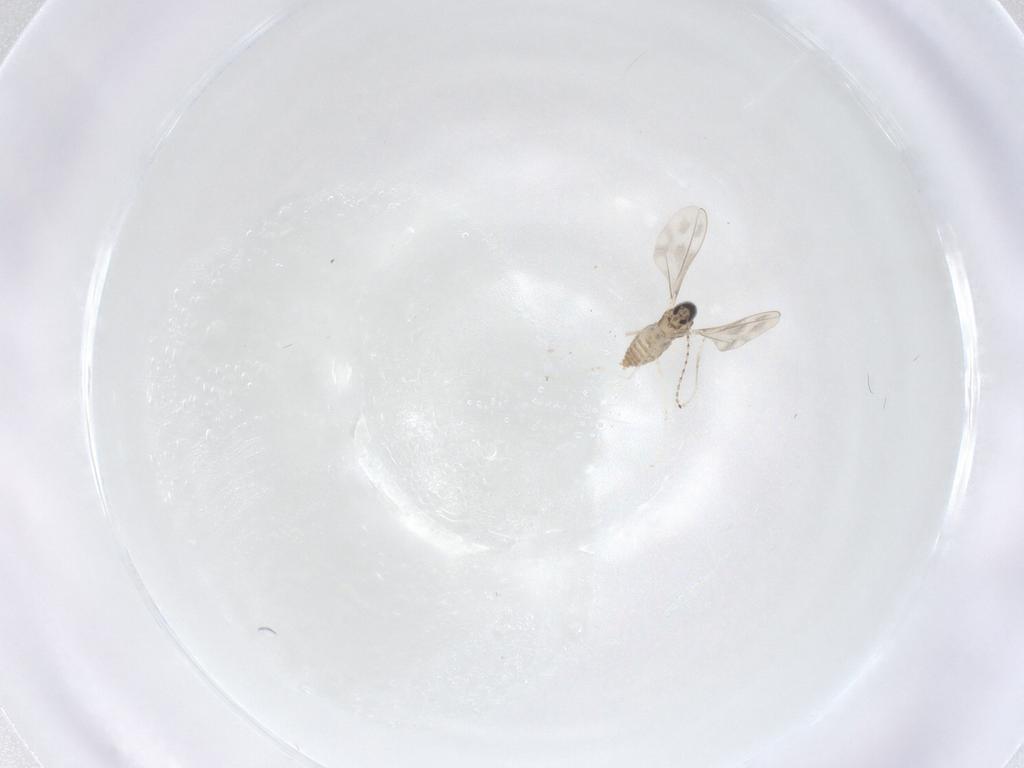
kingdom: Animalia
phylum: Arthropoda
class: Insecta
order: Diptera
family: Cecidomyiidae
